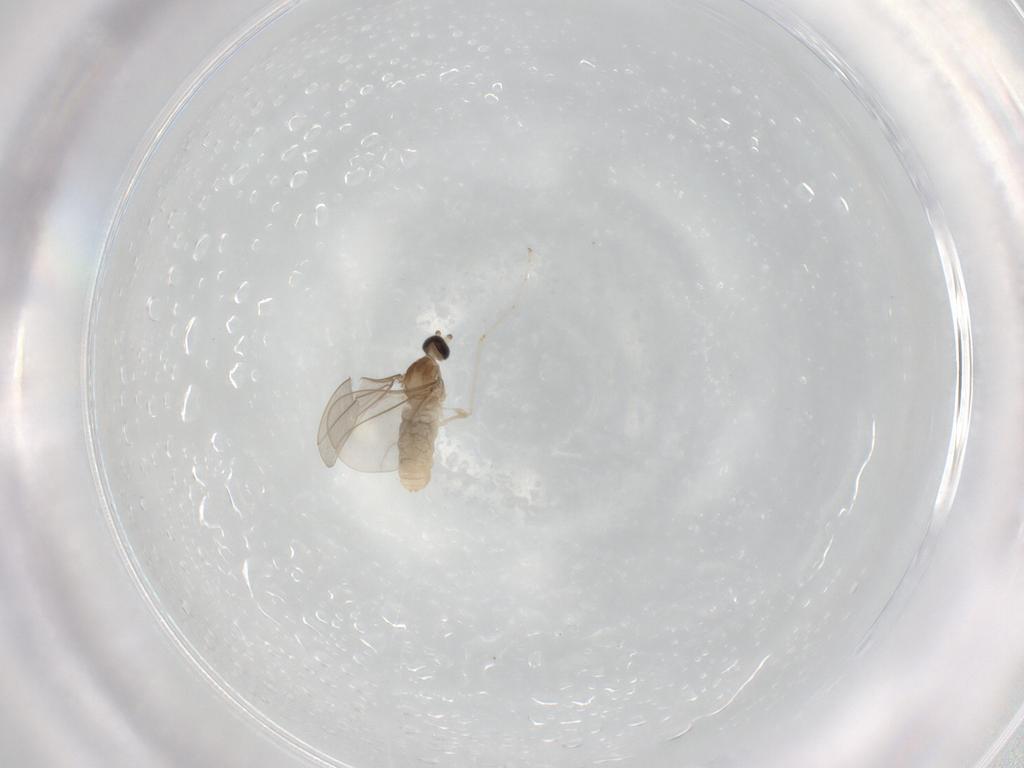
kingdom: Animalia
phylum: Arthropoda
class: Insecta
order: Diptera
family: Cecidomyiidae
